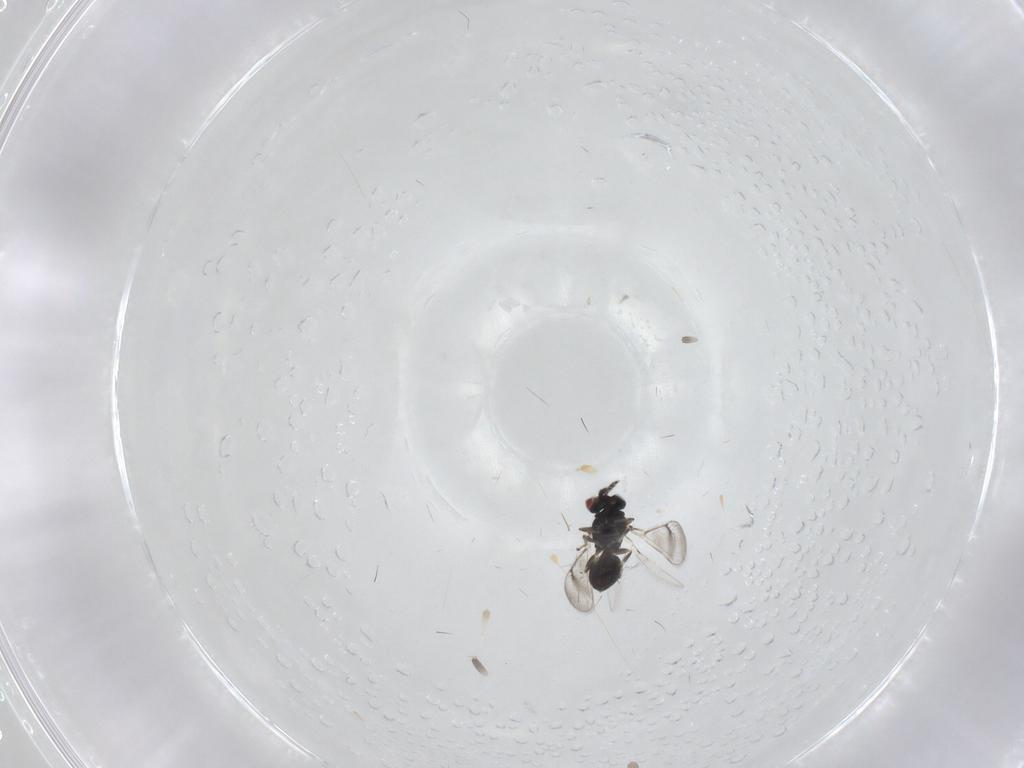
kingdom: Animalia
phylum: Arthropoda
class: Insecta
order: Hymenoptera
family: Eulophidae
